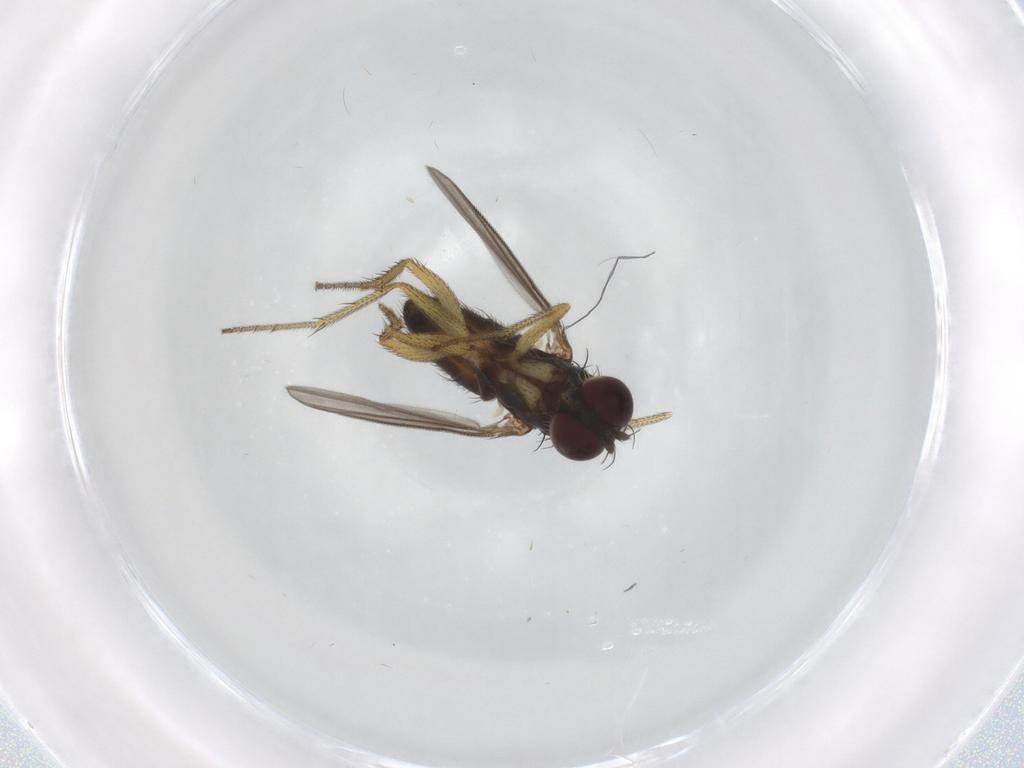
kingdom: Animalia
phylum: Arthropoda
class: Insecta
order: Diptera
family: Dolichopodidae
